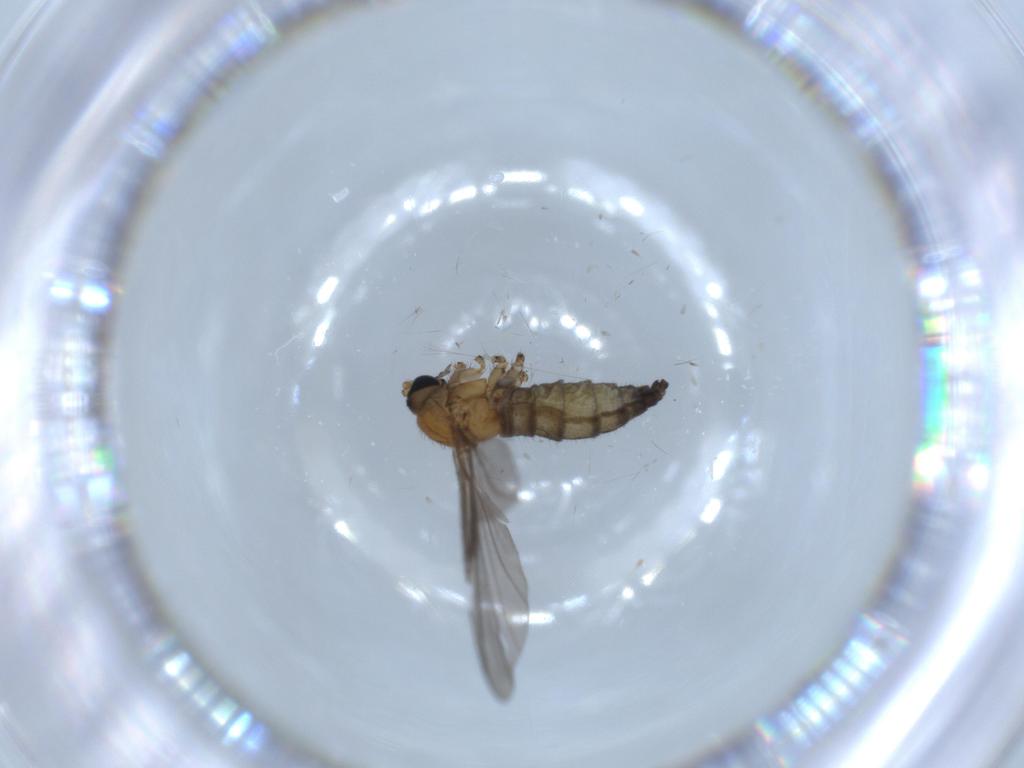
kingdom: Animalia
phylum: Arthropoda
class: Insecta
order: Diptera
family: Sciaridae
